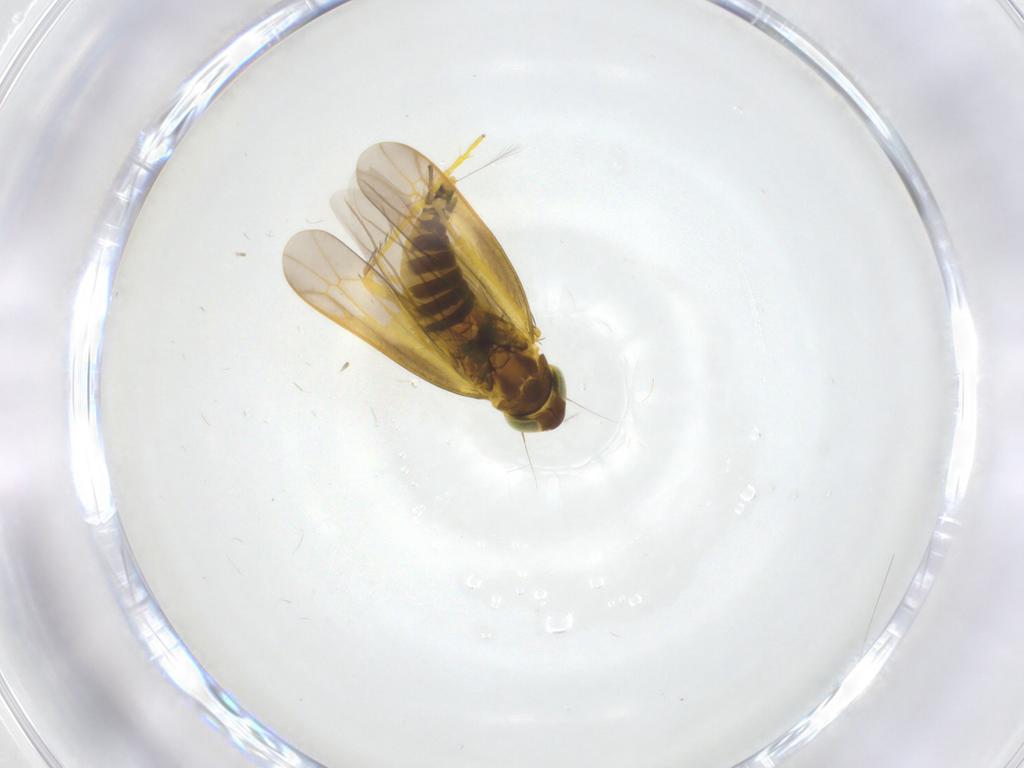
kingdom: Animalia
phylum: Arthropoda
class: Insecta
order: Hemiptera
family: Cicadellidae
